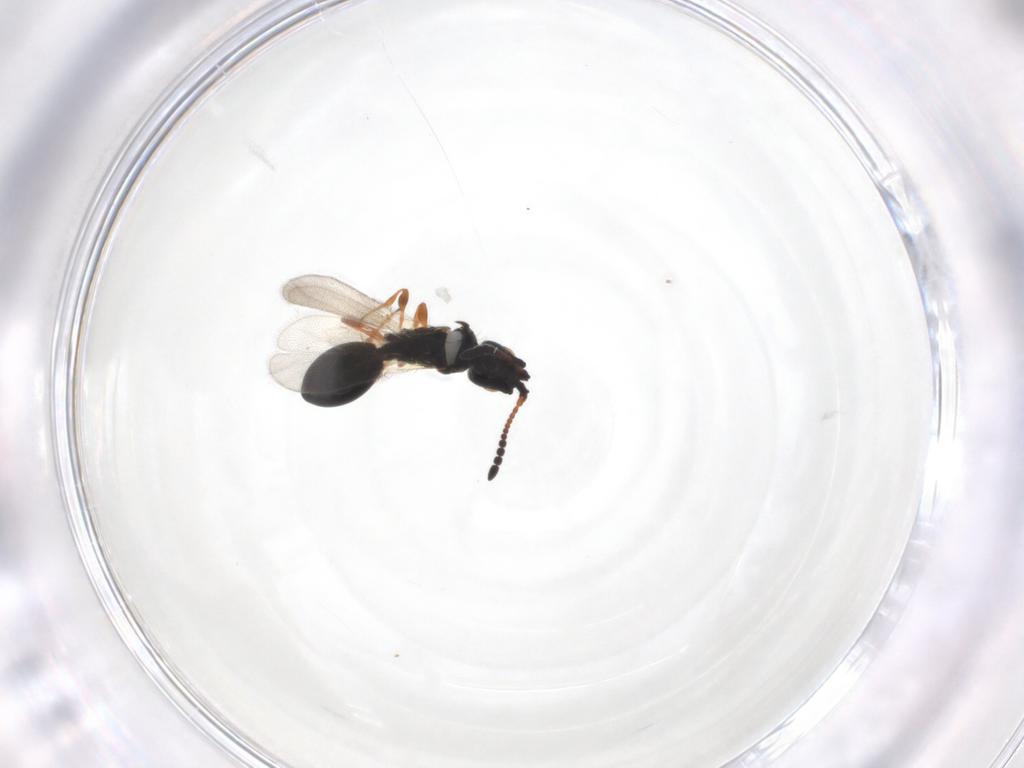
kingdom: Animalia
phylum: Arthropoda
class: Insecta
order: Hymenoptera
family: Diapriidae
